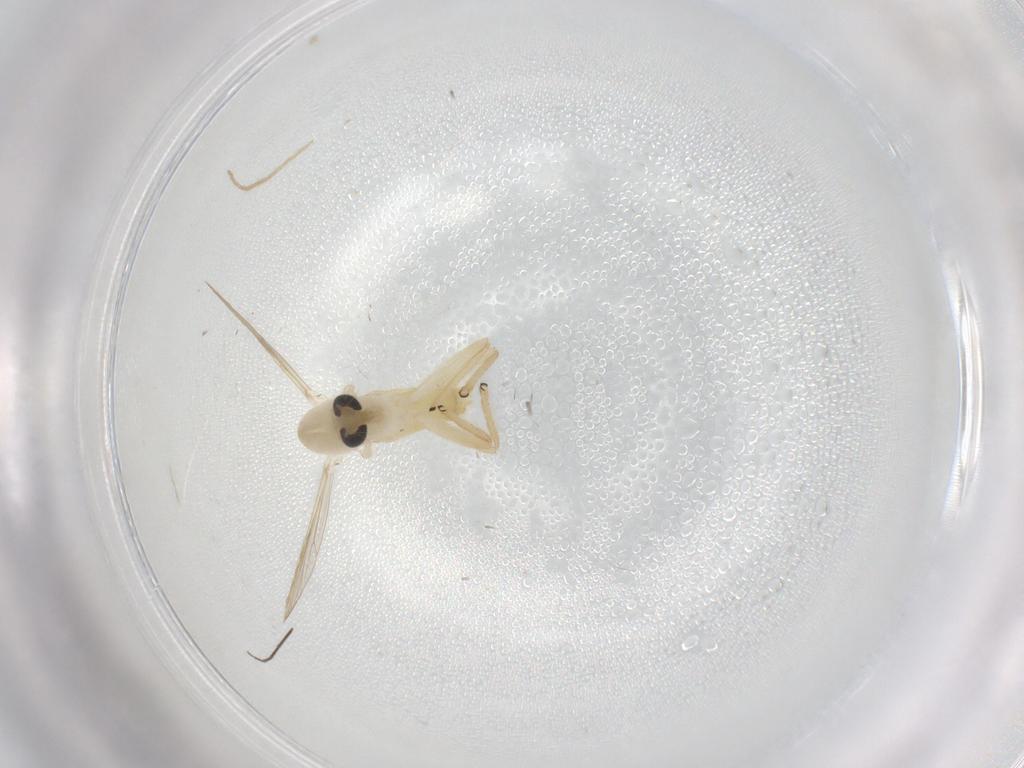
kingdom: Animalia
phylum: Arthropoda
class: Insecta
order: Diptera
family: Chironomidae
